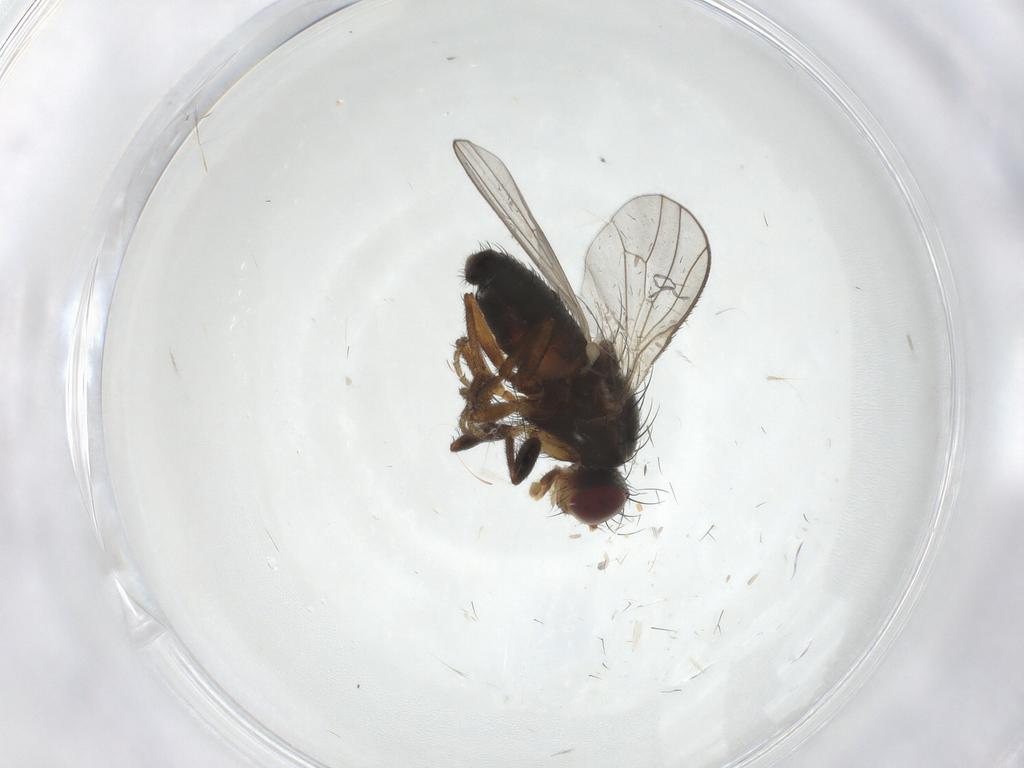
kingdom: Animalia
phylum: Arthropoda
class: Insecta
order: Diptera
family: Heleomyzidae
